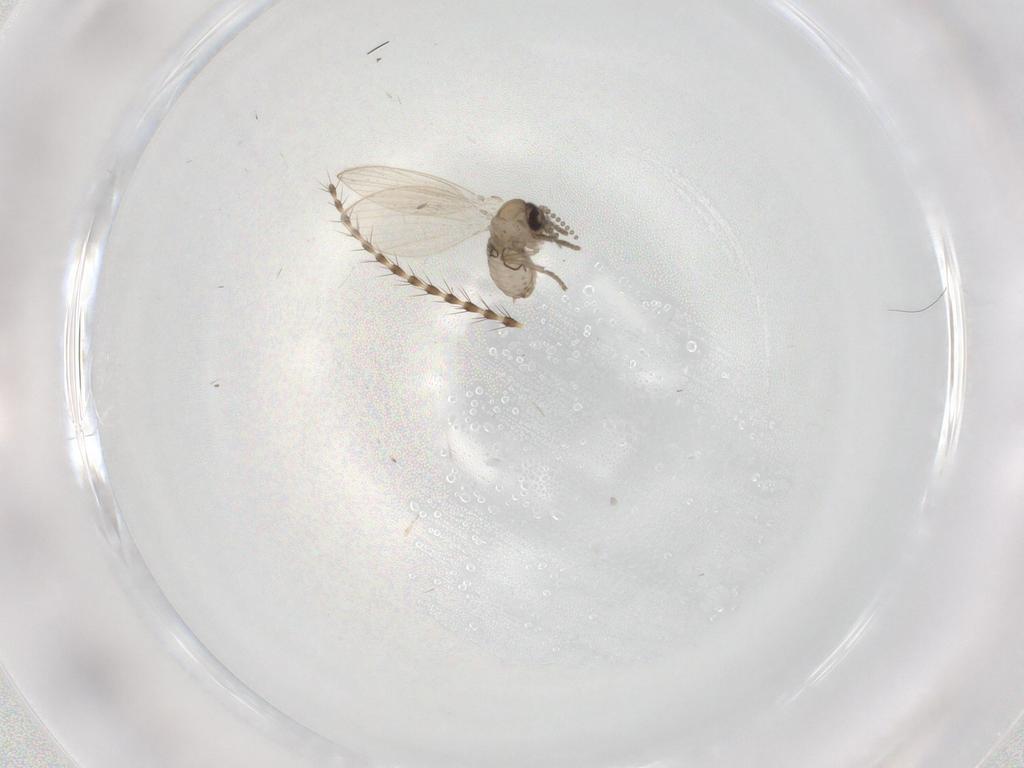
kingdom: Animalia
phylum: Arthropoda
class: Insecta
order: Diptera
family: Psychodidae
